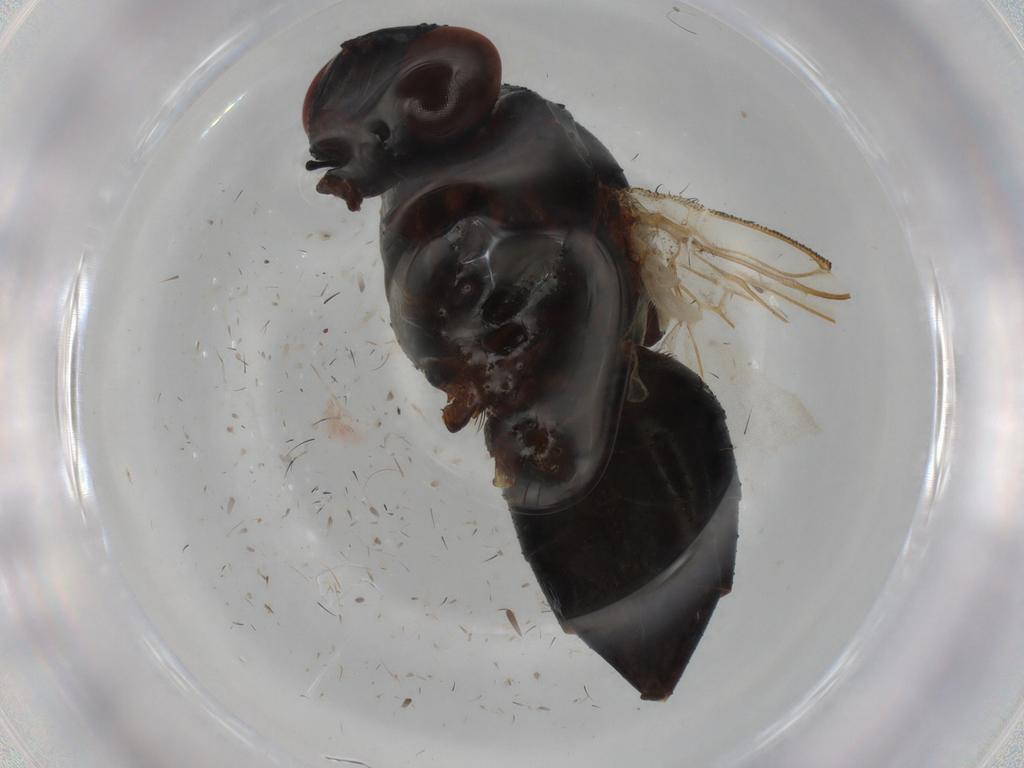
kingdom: Animalia
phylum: Arthropoda
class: Insecta
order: Diptera
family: Muscidae
